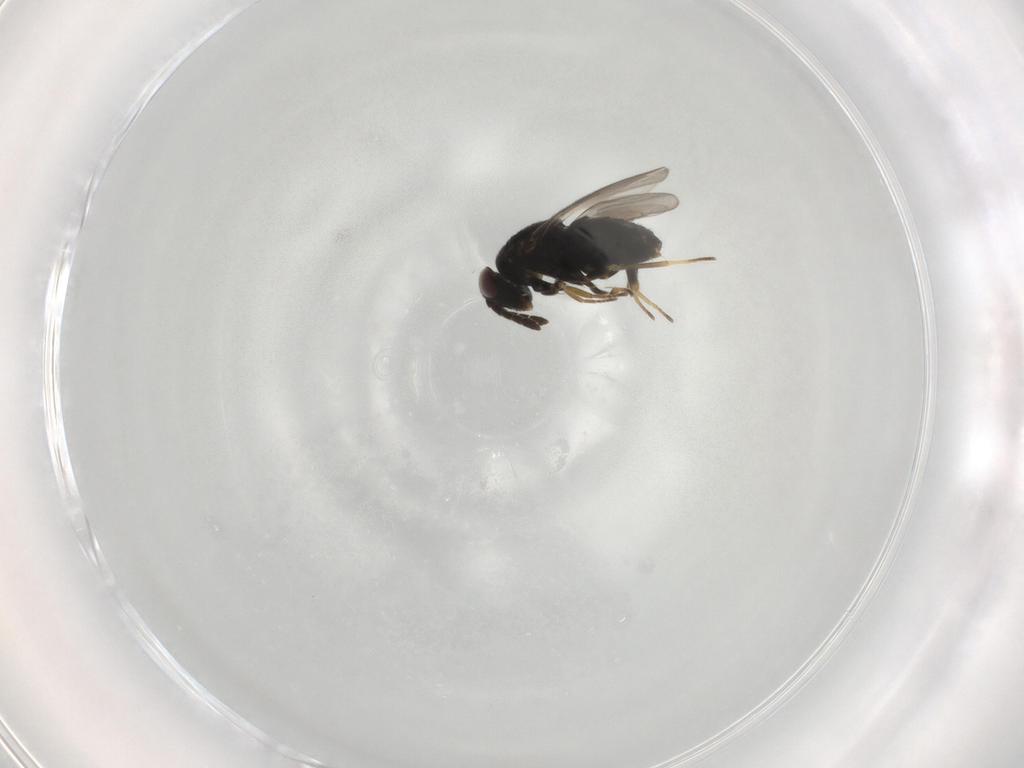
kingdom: Animalia
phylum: Arthropoda
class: Insecta
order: Hymenoptera
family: Aphelinidae
